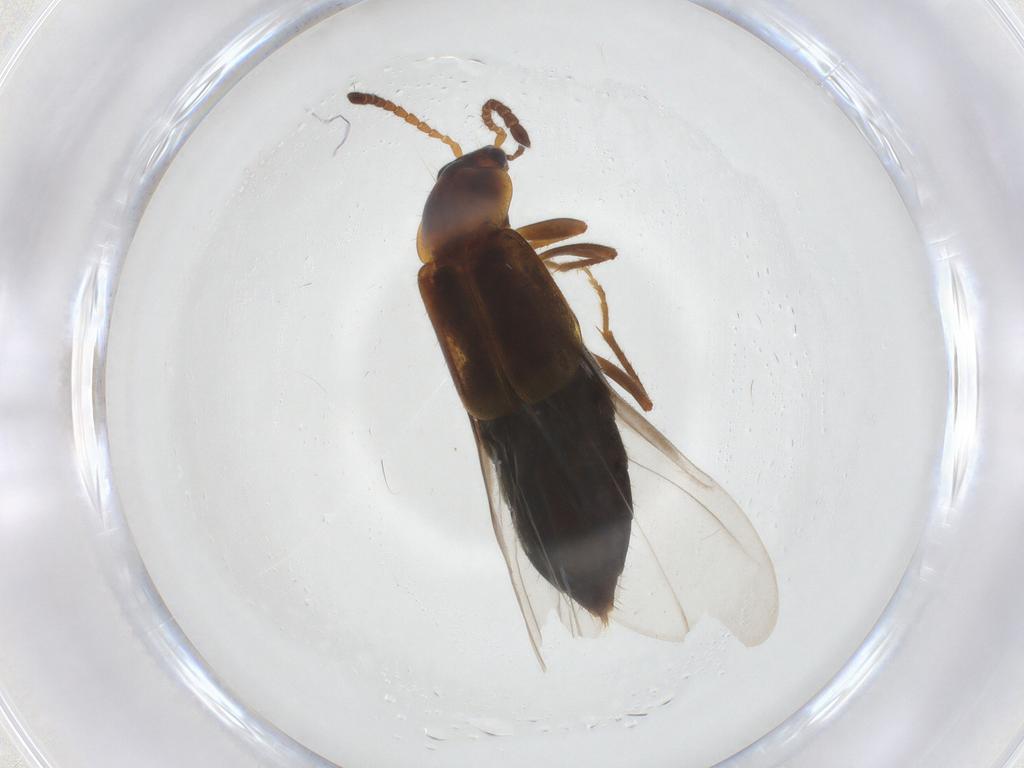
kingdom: Animalia
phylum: Arthropoda
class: Insecta
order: Coleoptera
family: Staphylinidae
